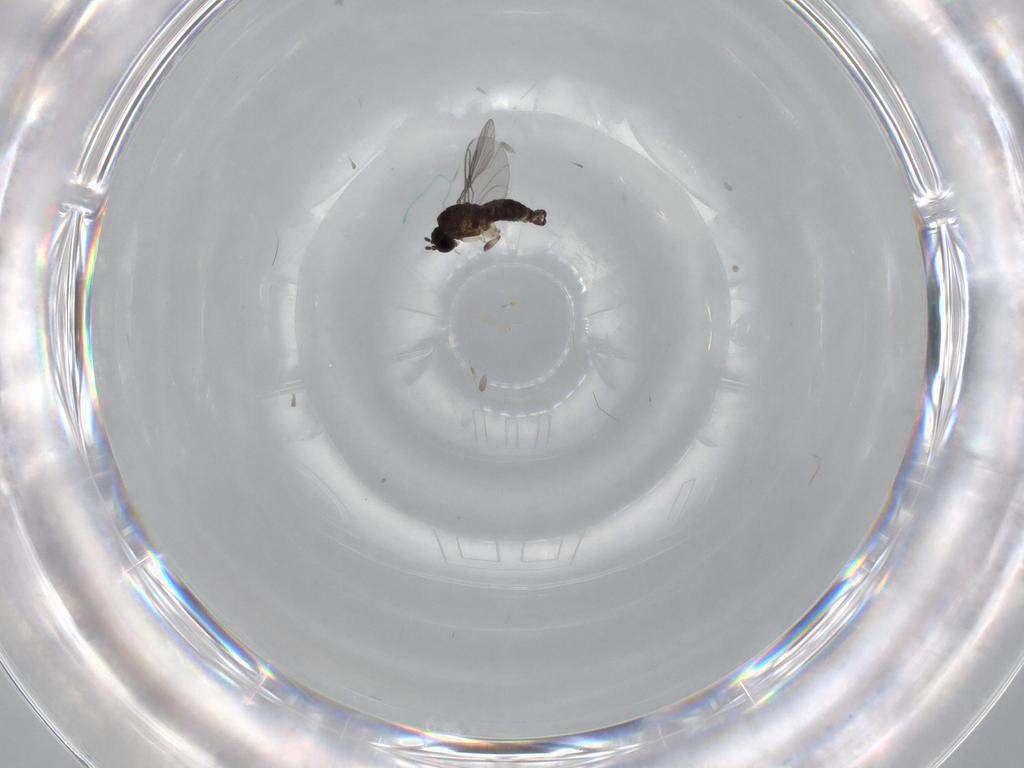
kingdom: Animalia
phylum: Arthropoda
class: Insecta
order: Diptera
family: Sciaridae
